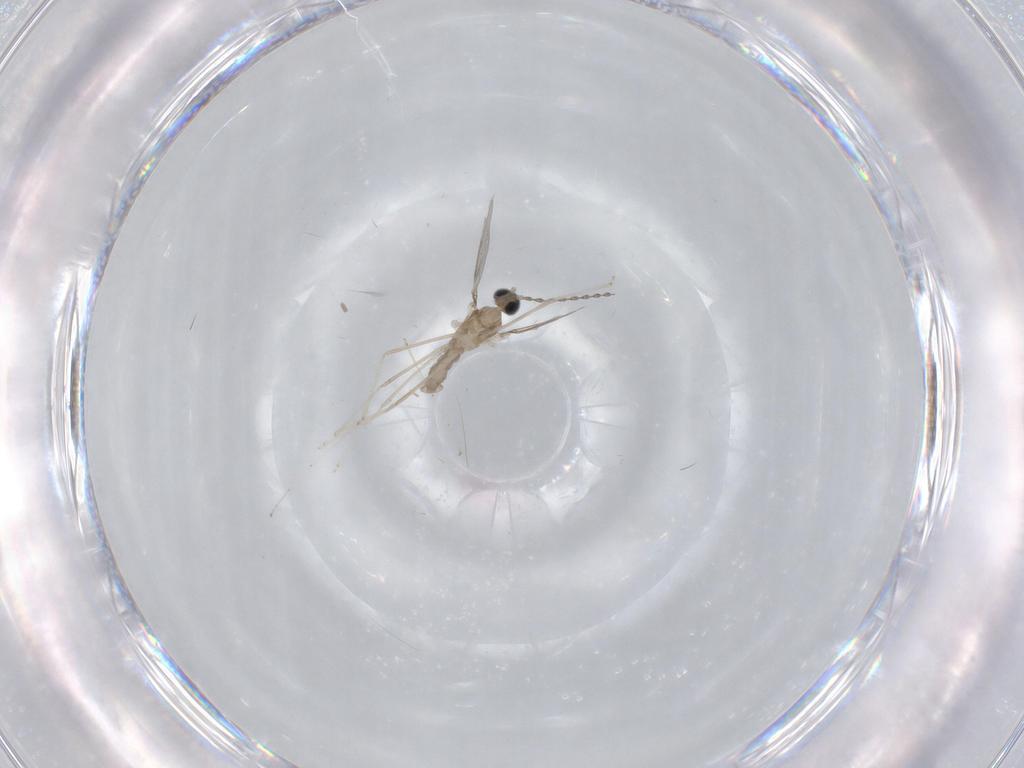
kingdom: Animalia
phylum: Arthropoda
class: Insecta
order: Diptera
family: Cecidomyiidae
